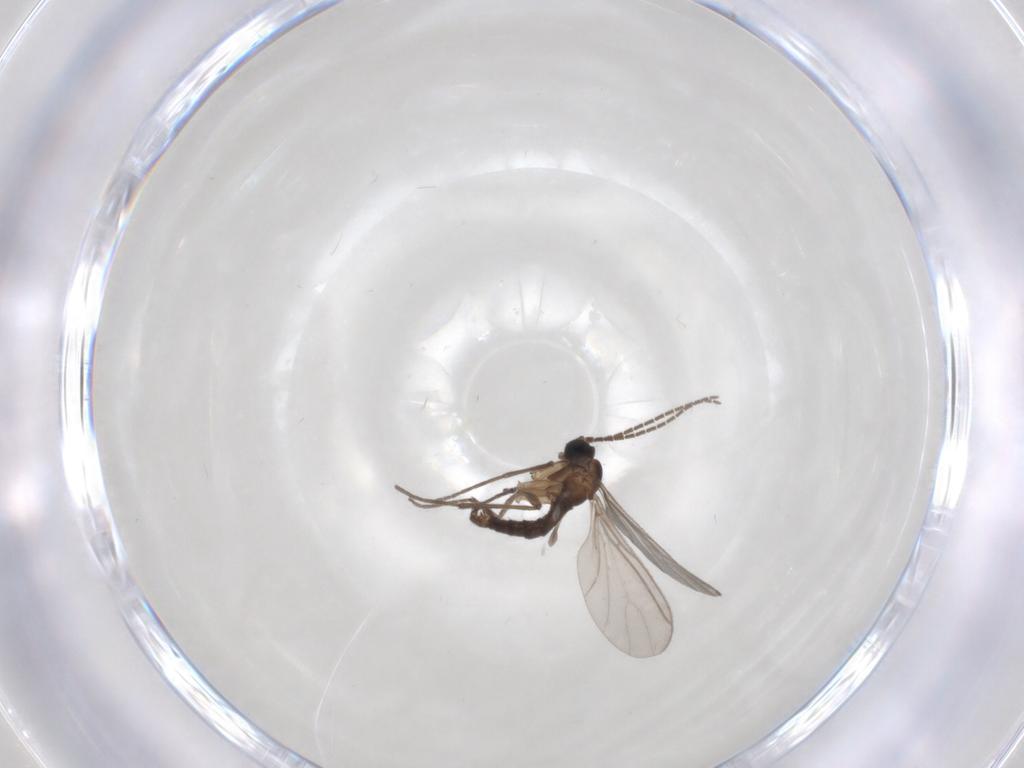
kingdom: Animalia
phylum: Arthropoda
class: Insecta
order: Diptera
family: Sciaridae
